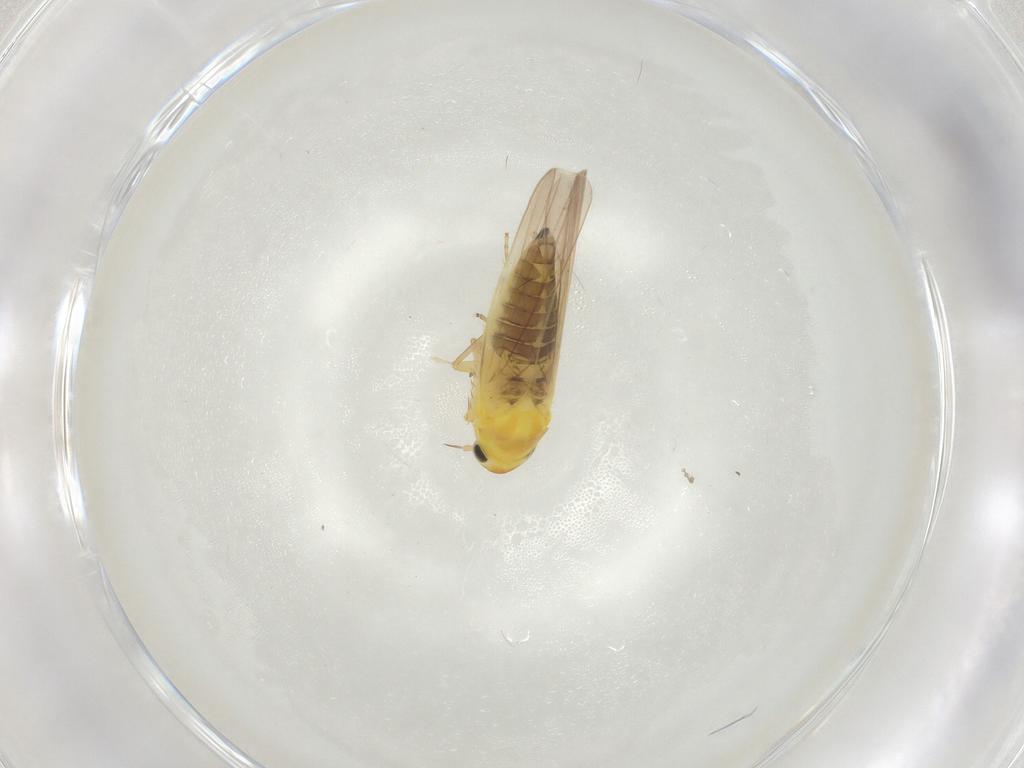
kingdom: Animalia
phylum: Arthropoda
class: Insecta
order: Hemiptera
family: Cicadellidae
